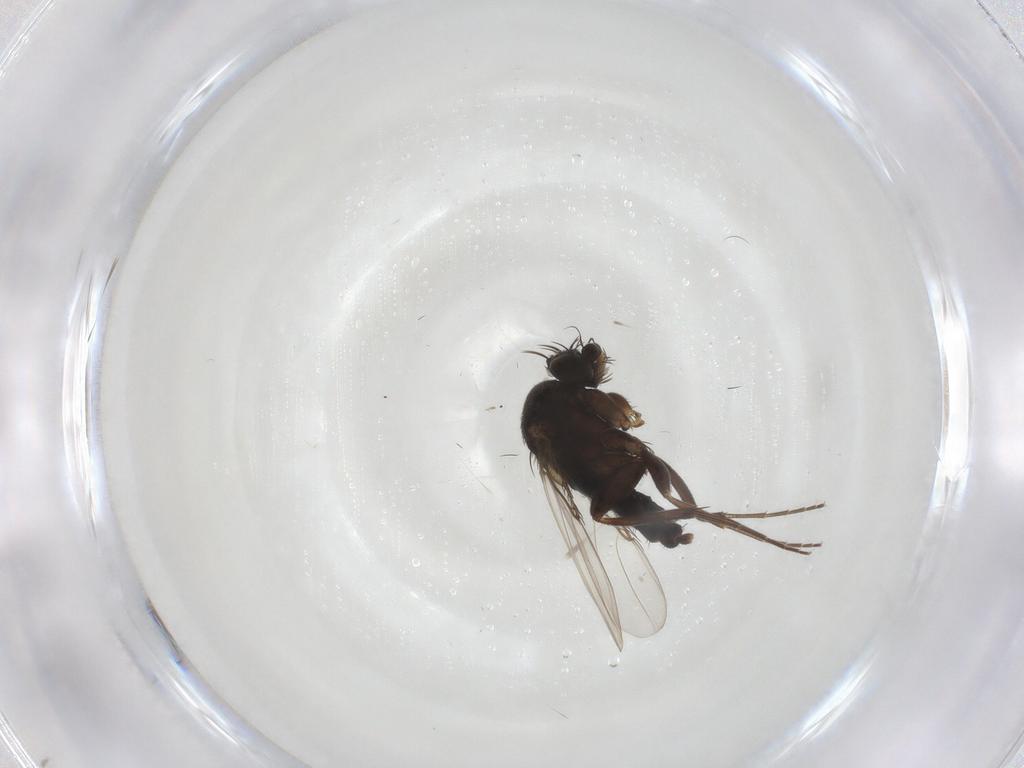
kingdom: Animalia
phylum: Arthropoda
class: Insecta
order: Diptera
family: Phoridae
